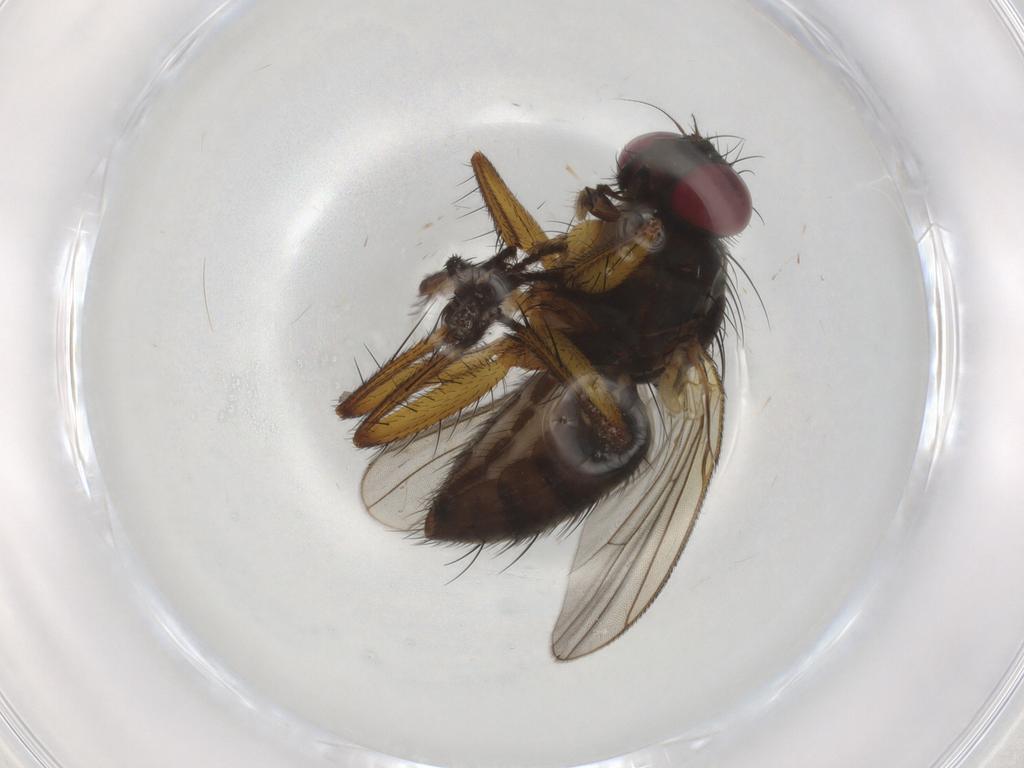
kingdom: Animalia
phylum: Arthropoda
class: Insecta
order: Diptera
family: Muscidae
